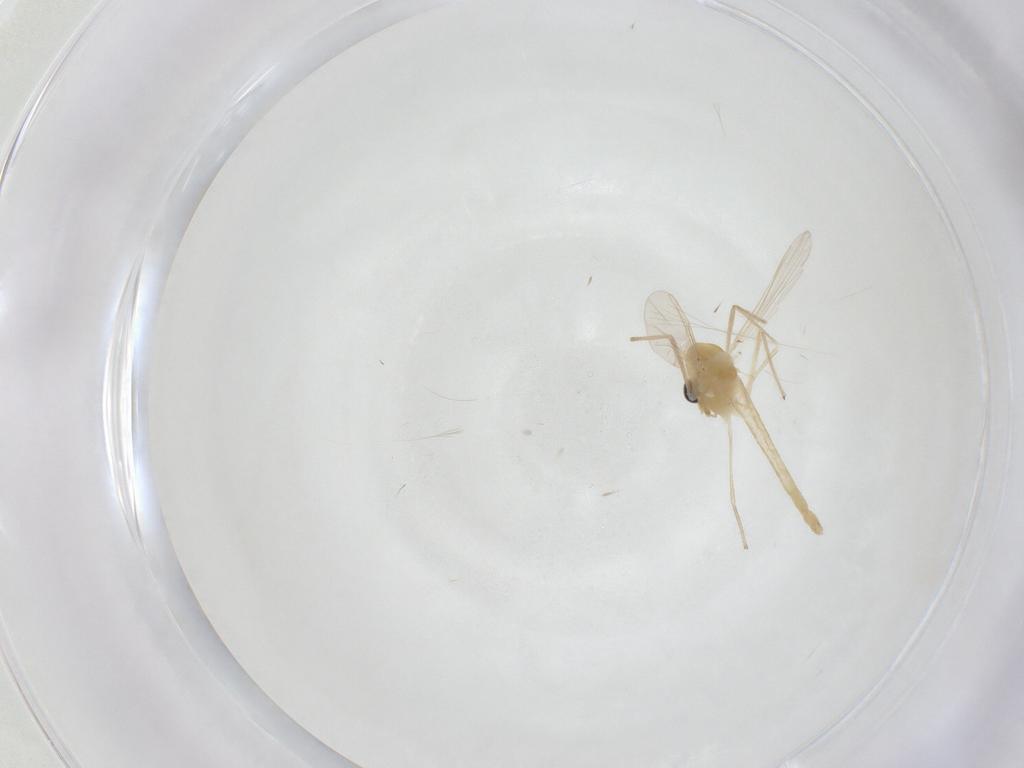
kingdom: Animalia
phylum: Arthropoda
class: Insecta
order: Diptera
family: Chironomidae
